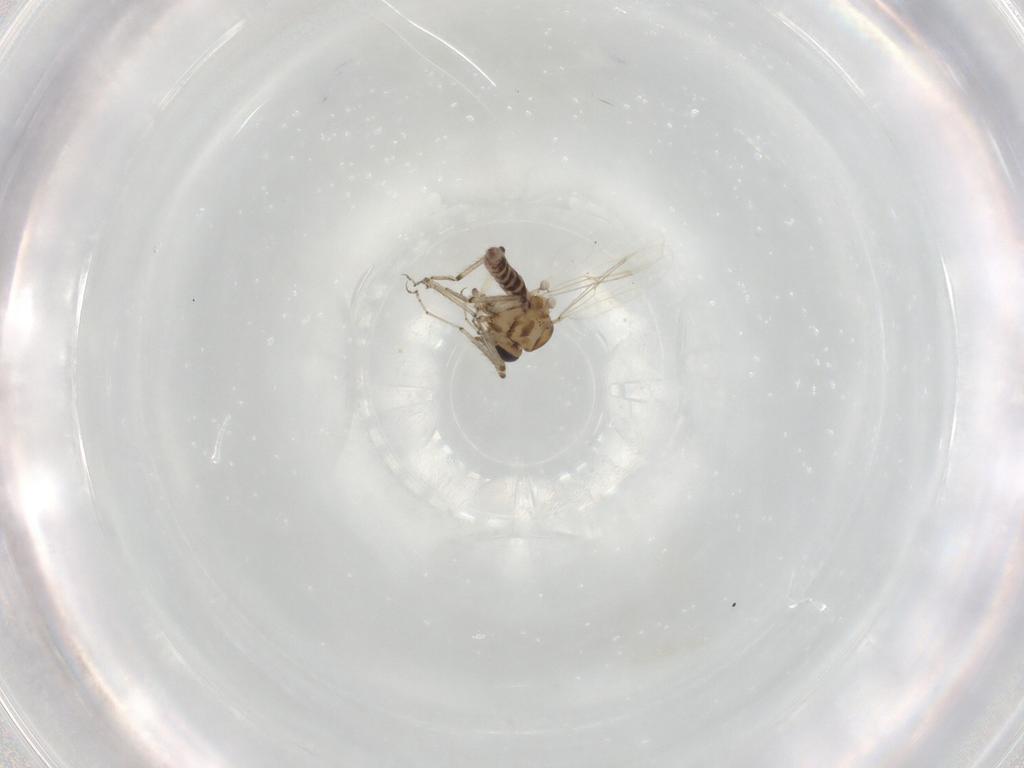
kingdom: Animalia
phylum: Arthropoda
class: Insecta
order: Diptera
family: Ceratopogonidae
